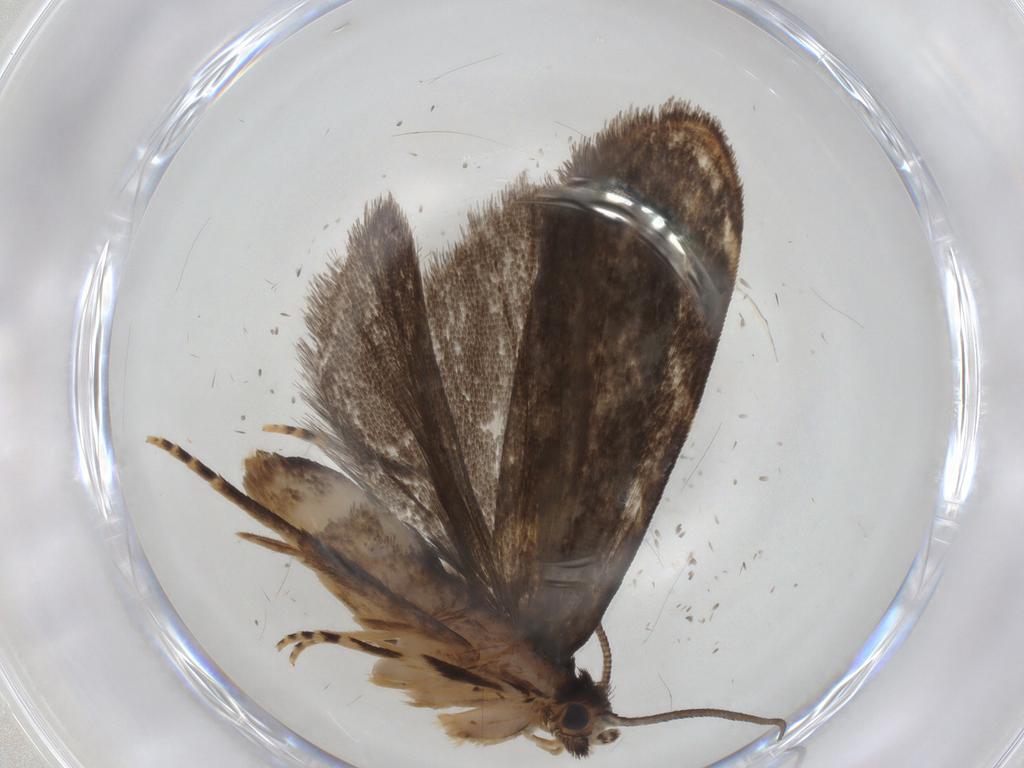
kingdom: Animalia
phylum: Arthropoda
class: Insecta
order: Lepidoptera
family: Dryadaulidae
